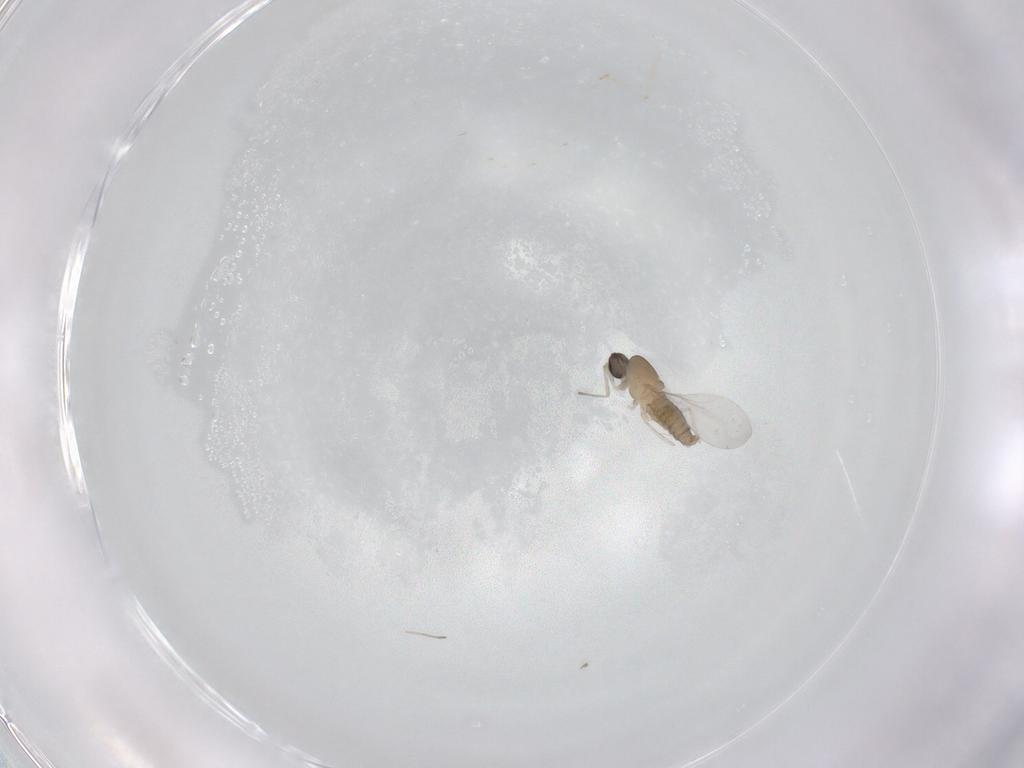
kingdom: Animalia
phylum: Arthropoda
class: Insecta
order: Diptera
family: Cecidomyiidae
